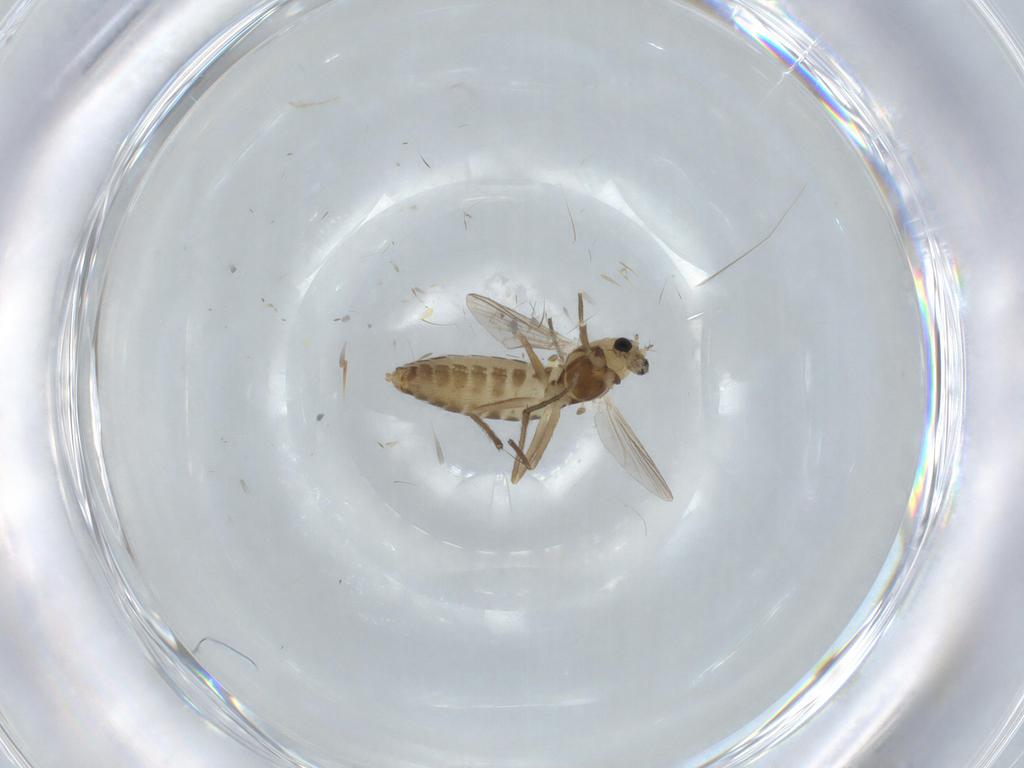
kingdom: Animalia
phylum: Arthropoda
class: Insecta
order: Diptera
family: Chironomidae
